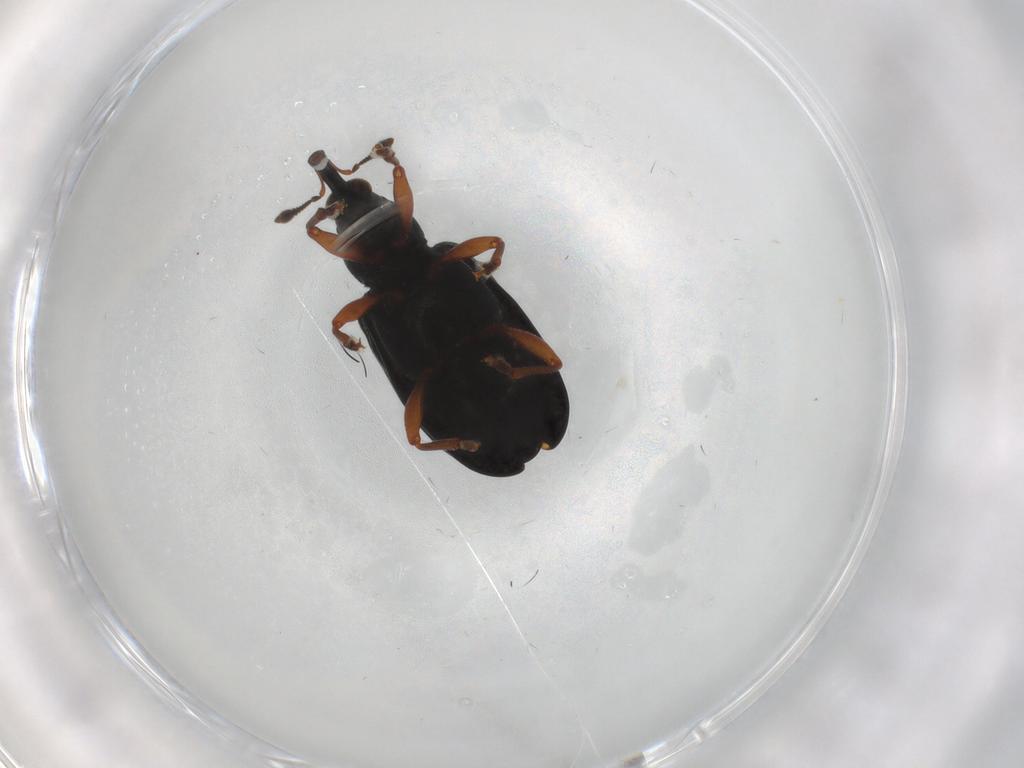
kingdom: Animalia
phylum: Arthropoda
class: Insecta
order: Coleoptera
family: Curculionidae
